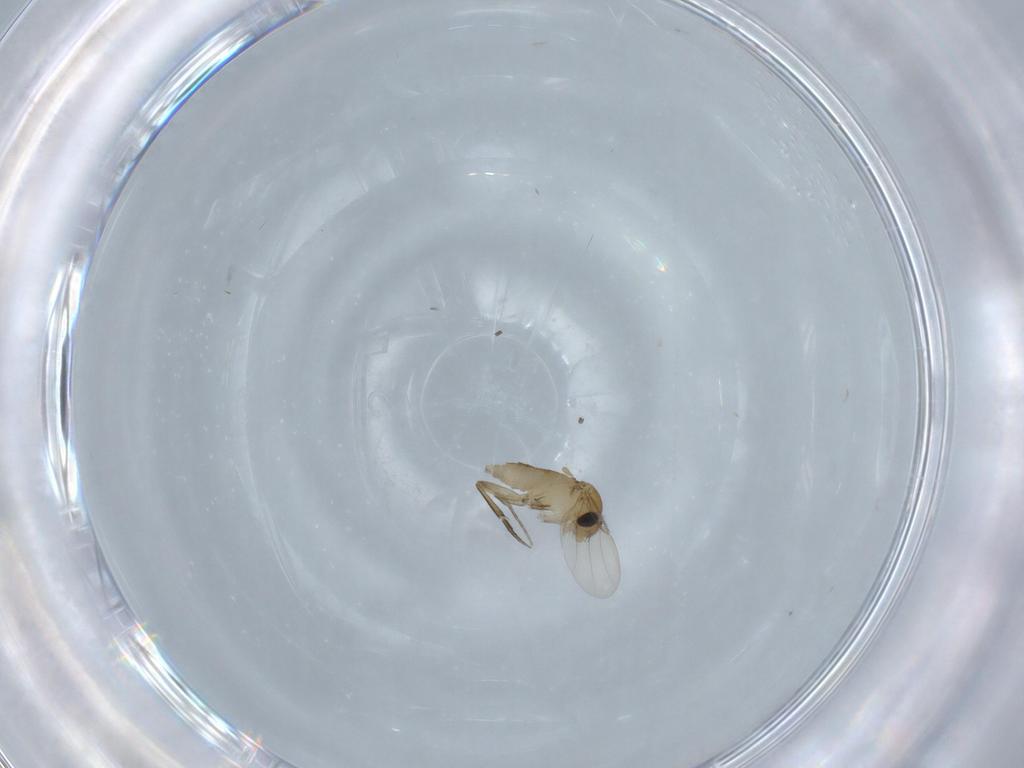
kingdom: Animalia
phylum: Arthropoda
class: Insecta
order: Diptera
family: Phoridae
